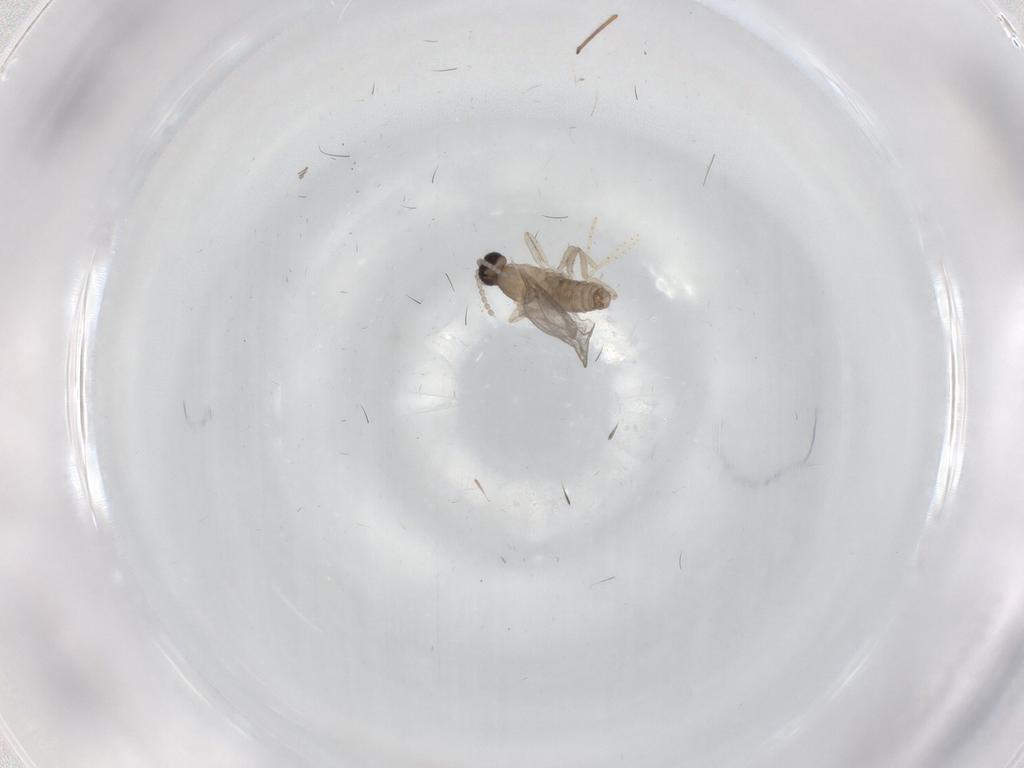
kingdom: Animalia
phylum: Arthropoda
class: Insecta
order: Diptera
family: Cecidomyiidae
